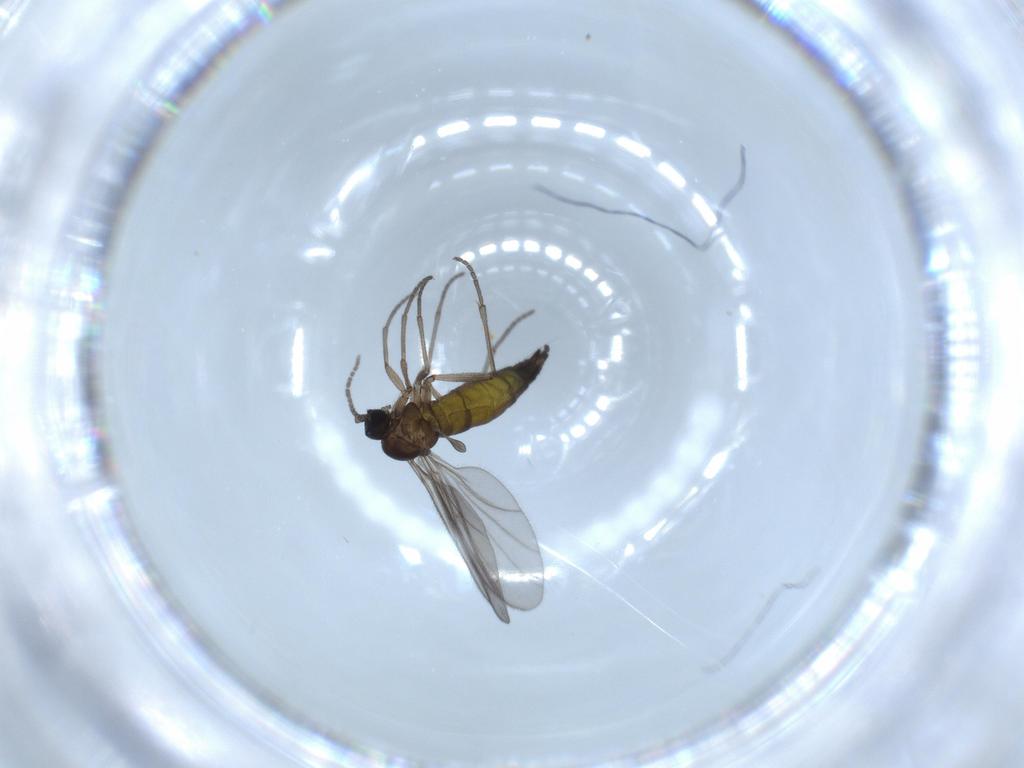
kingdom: Animalia
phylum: Arthropoda
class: Insecta
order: Diptera
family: Sciaridae
